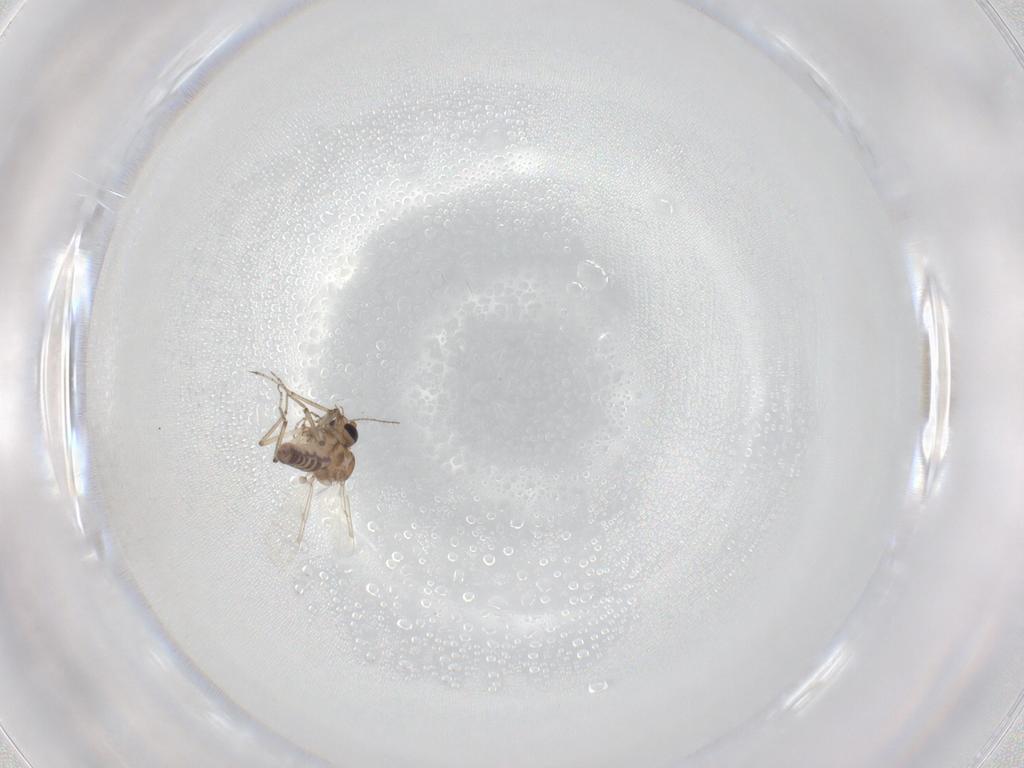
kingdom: Animalia
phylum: Arthropoda
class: Insecta
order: Diptera
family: Ceratopogonidae
